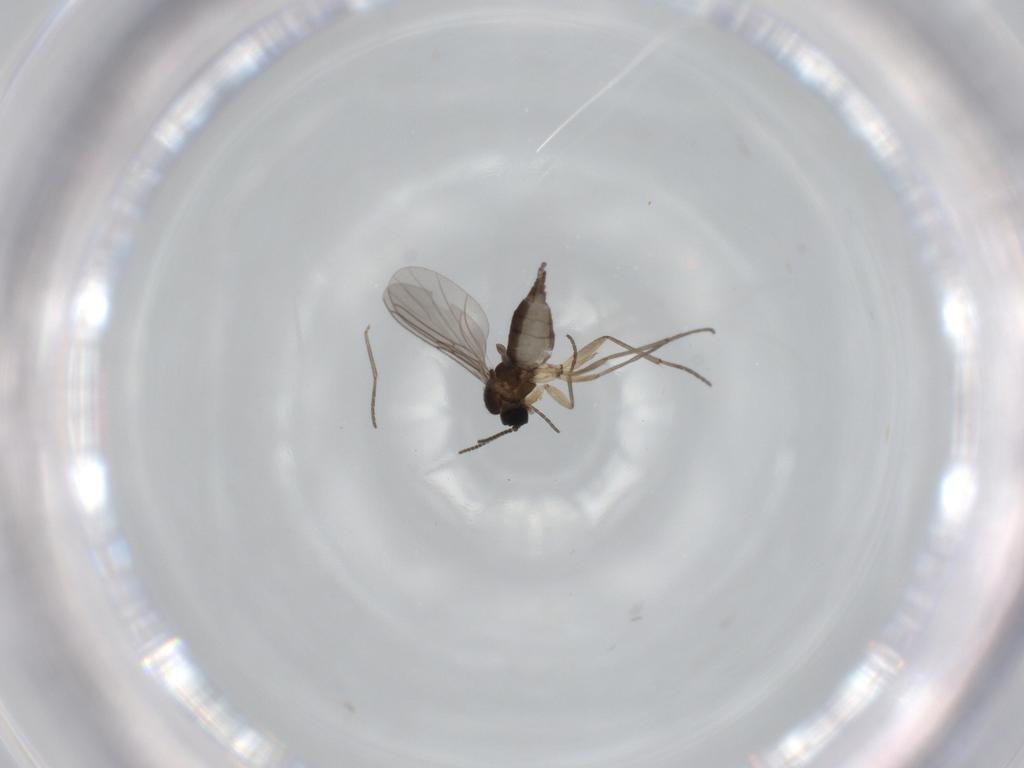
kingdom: Animalia
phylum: Arthropoda
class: Insecta
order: Diptera
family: Sciaridae
